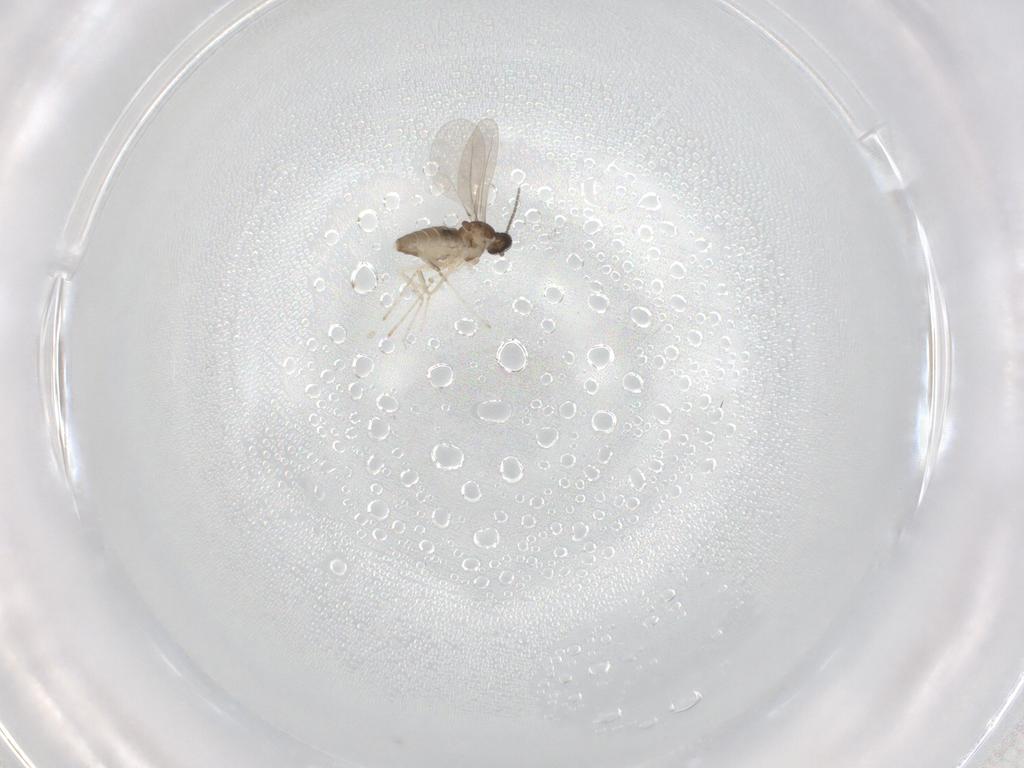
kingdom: Animalia
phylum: Arthropoda
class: Insecta
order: Diptera
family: Cecidomyiidae
